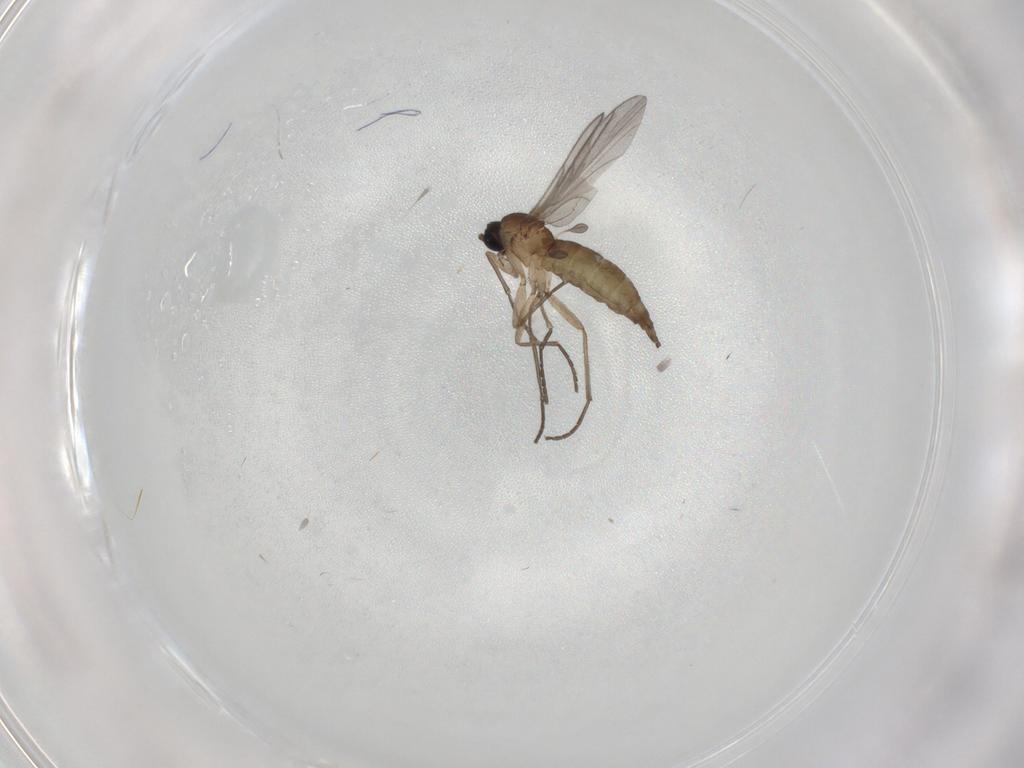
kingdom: Animalia
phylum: Arthropoda
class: Insecta
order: Diptera
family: Sciaridae
